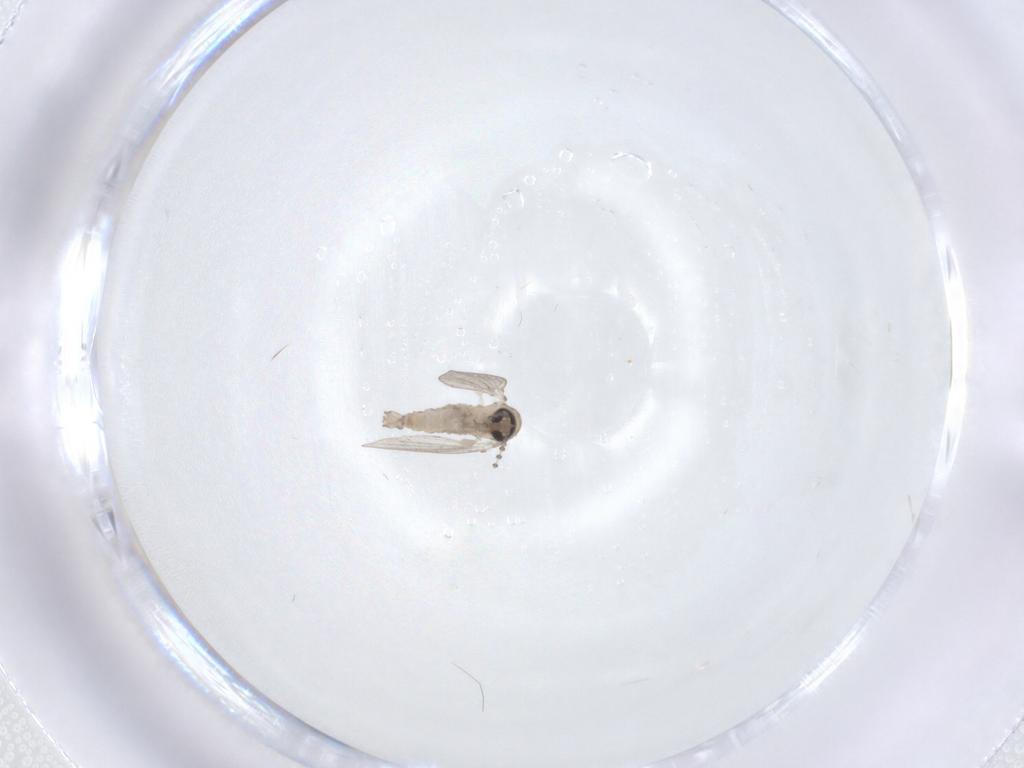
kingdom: Animalia
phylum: Arthropoda
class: Insecta
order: Diptera
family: Psychodidae
